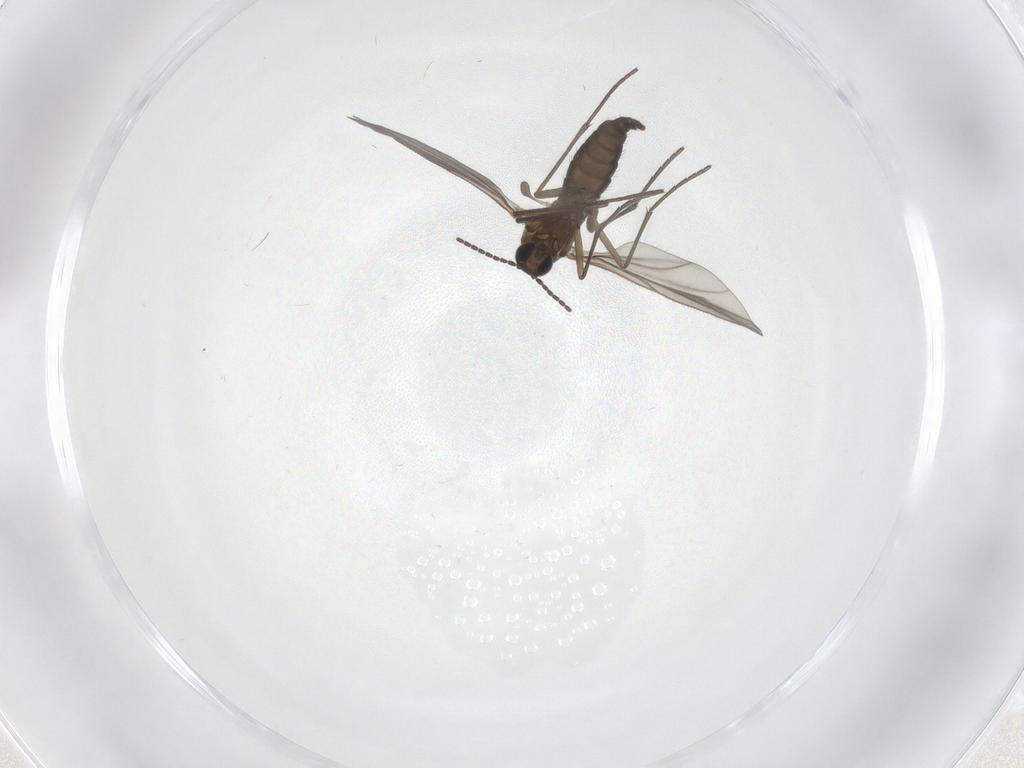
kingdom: Animalia
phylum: Arthropoda
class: Insecta
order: Diptera
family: Sciaridae
